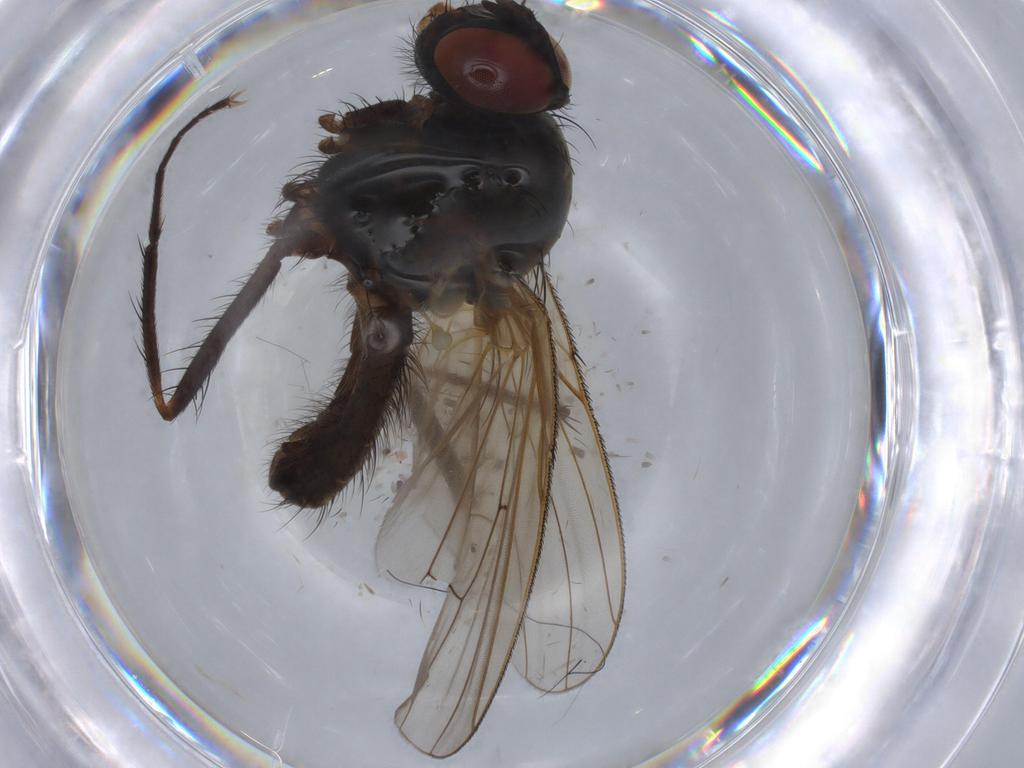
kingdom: Animalia
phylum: Arthropoda
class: Insecta
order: Diptera
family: Anthomyiidae
